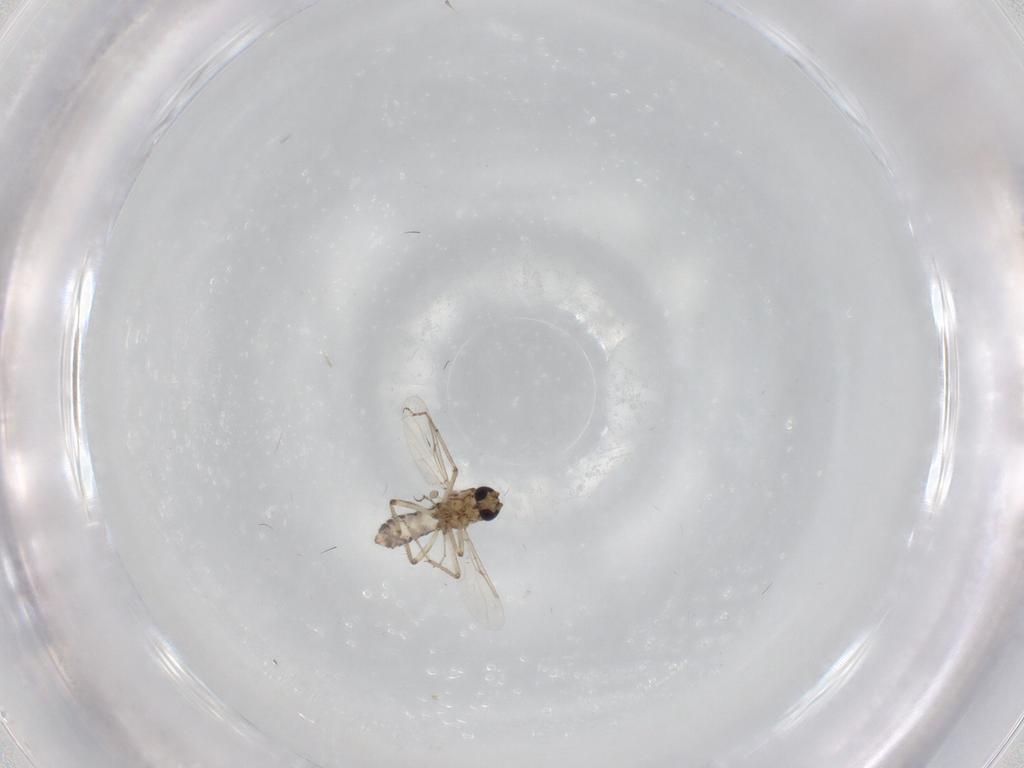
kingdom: Animalia
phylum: Arthropoda
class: Insecta
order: Diptera
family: Ceratopogonidae
